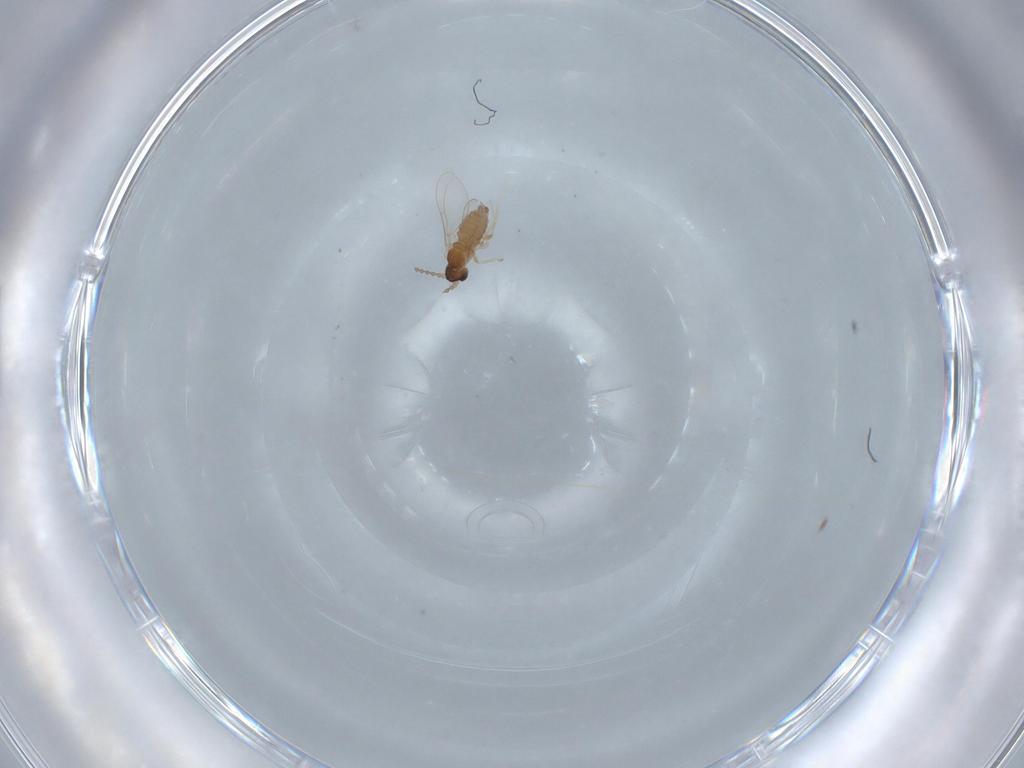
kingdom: Animalia
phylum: Arthropoda
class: Insecta
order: Diptera
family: Cecidomyiidae
